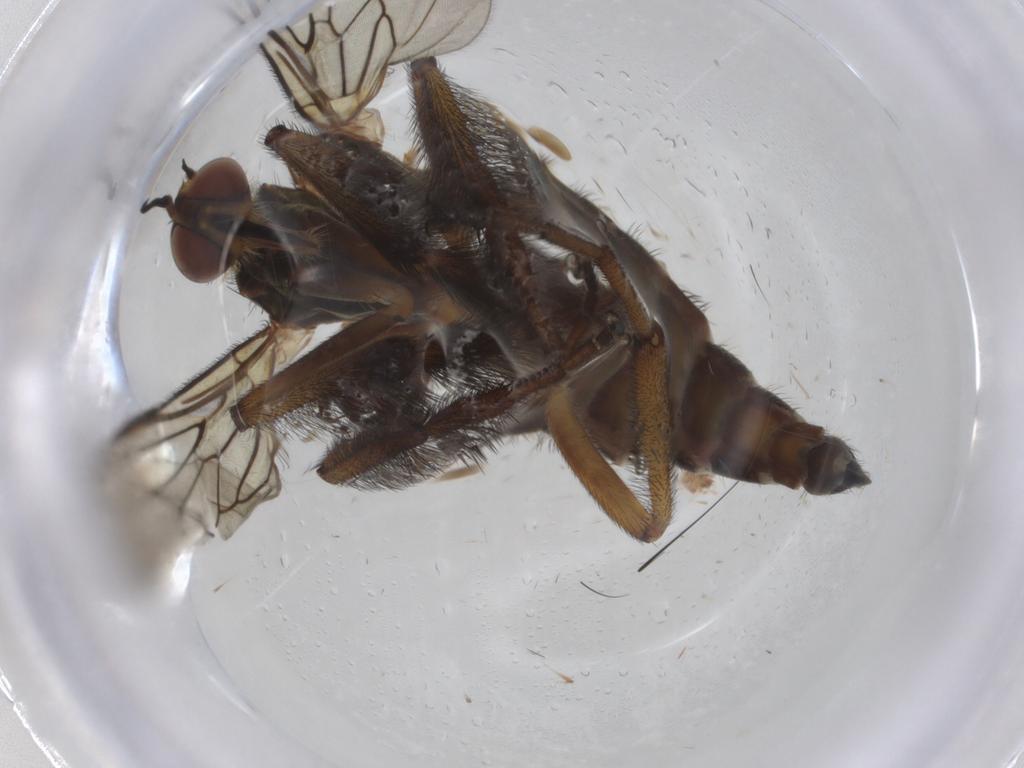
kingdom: Animalia
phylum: Arthropoda
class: Insecta
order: Diptera
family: Empididae
